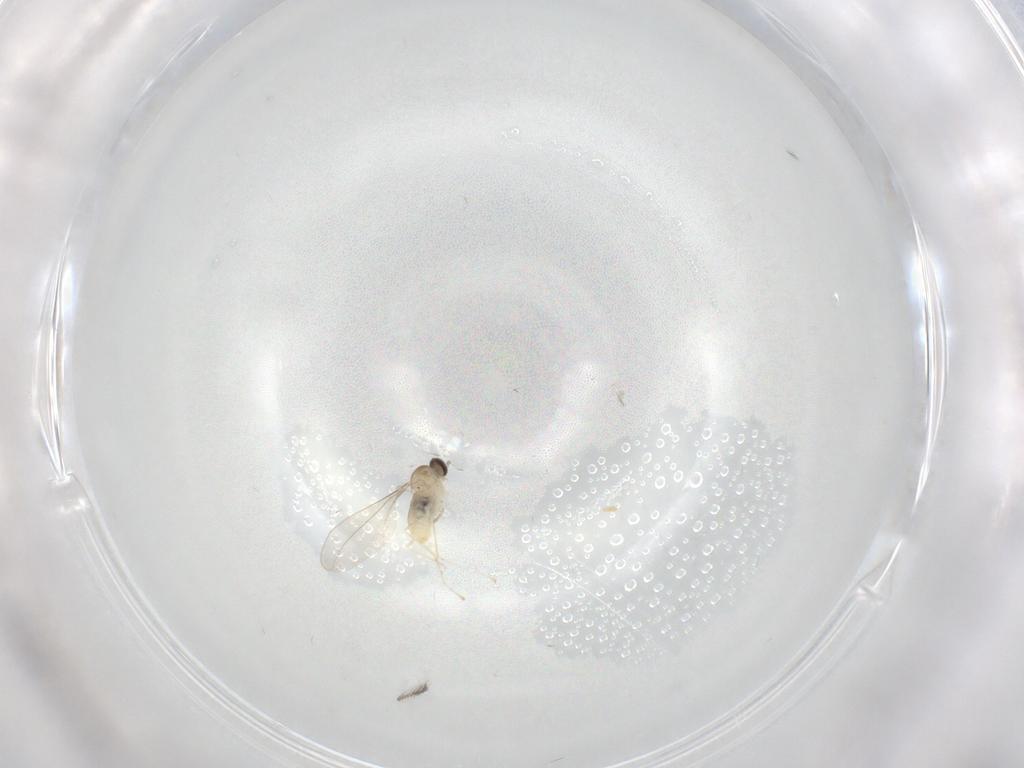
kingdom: Animalia
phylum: Arthropoda
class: Insecta
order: Diptera
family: Cecidomyiidae
